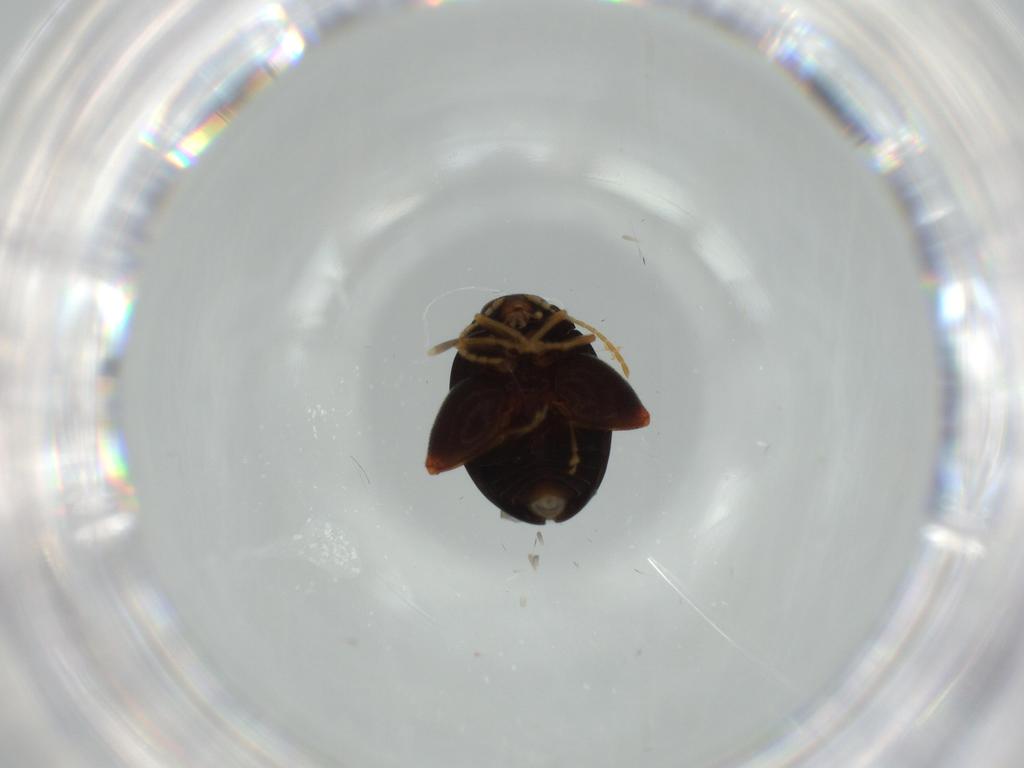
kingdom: Animalia
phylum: Arthropoda
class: Insecta
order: Coleoptera
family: Chrysomelidae
